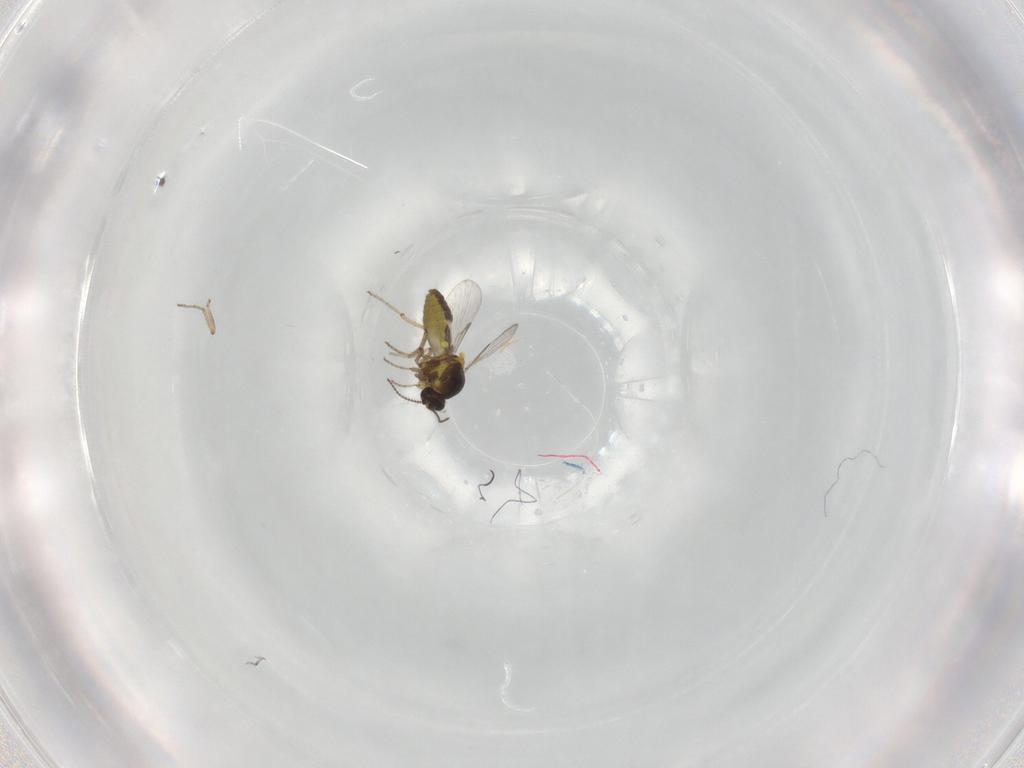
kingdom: Animalia
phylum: Arthropoda
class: Insecta
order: Diptera
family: Ceratopogonidae
